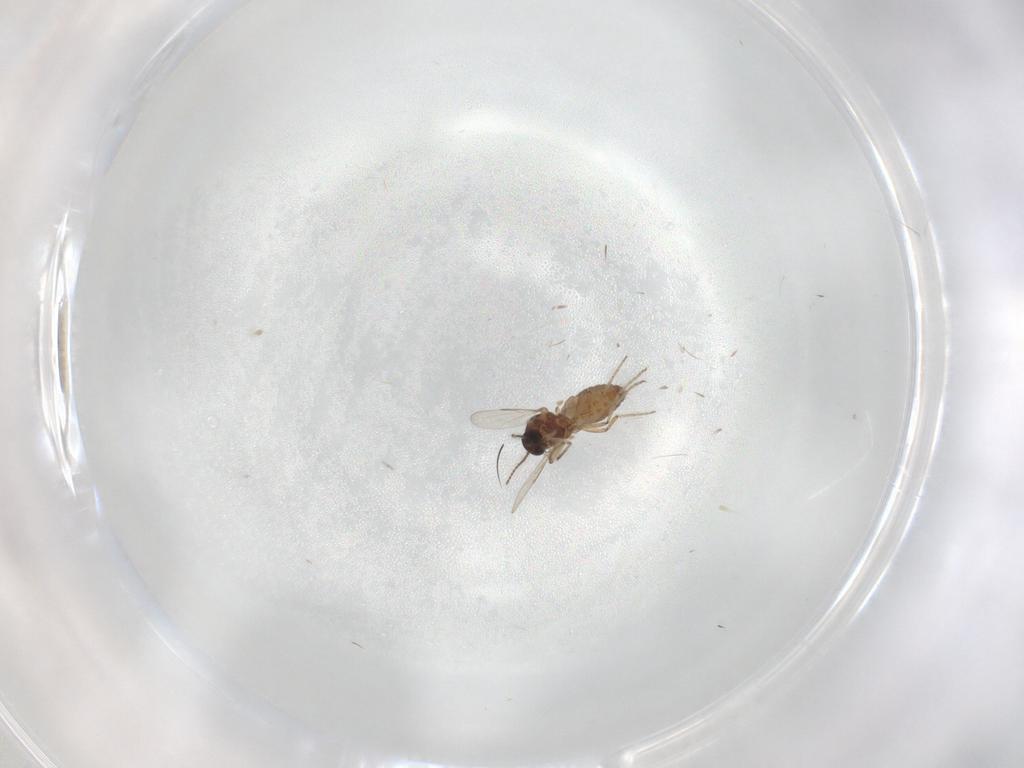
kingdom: Animalia
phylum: Arthropoda
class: Insecta
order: Diptera
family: Ceratopogonidae
